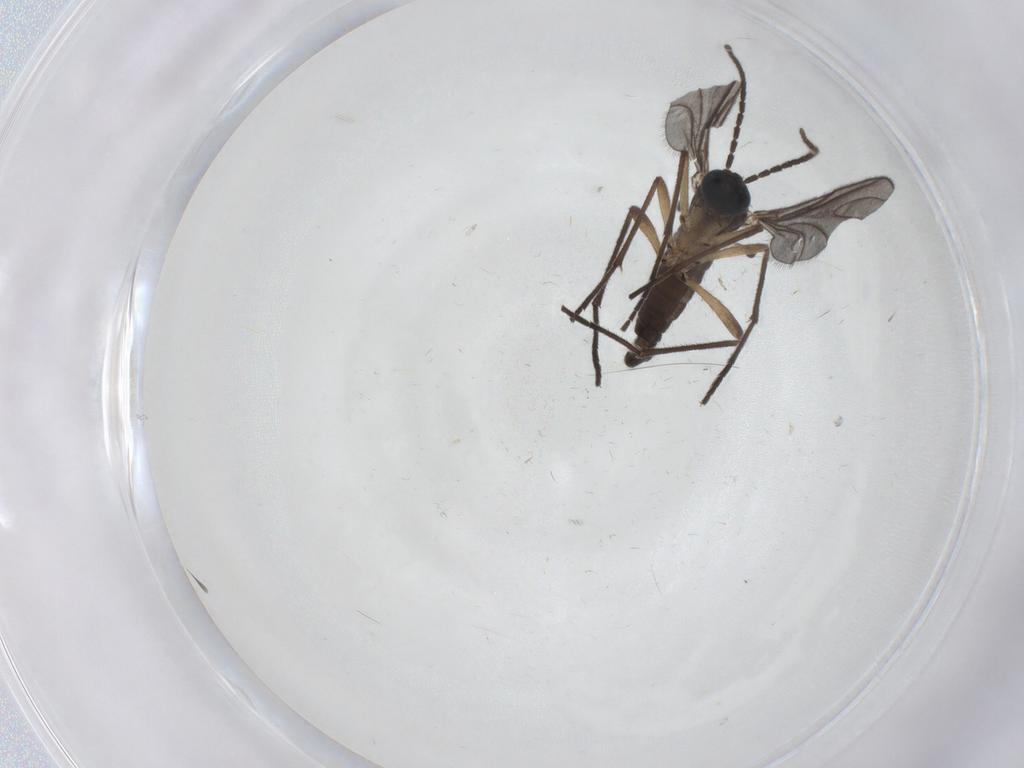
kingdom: Animalia
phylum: Arthropoda
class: Insecta
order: Diptera
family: Sciaridae
